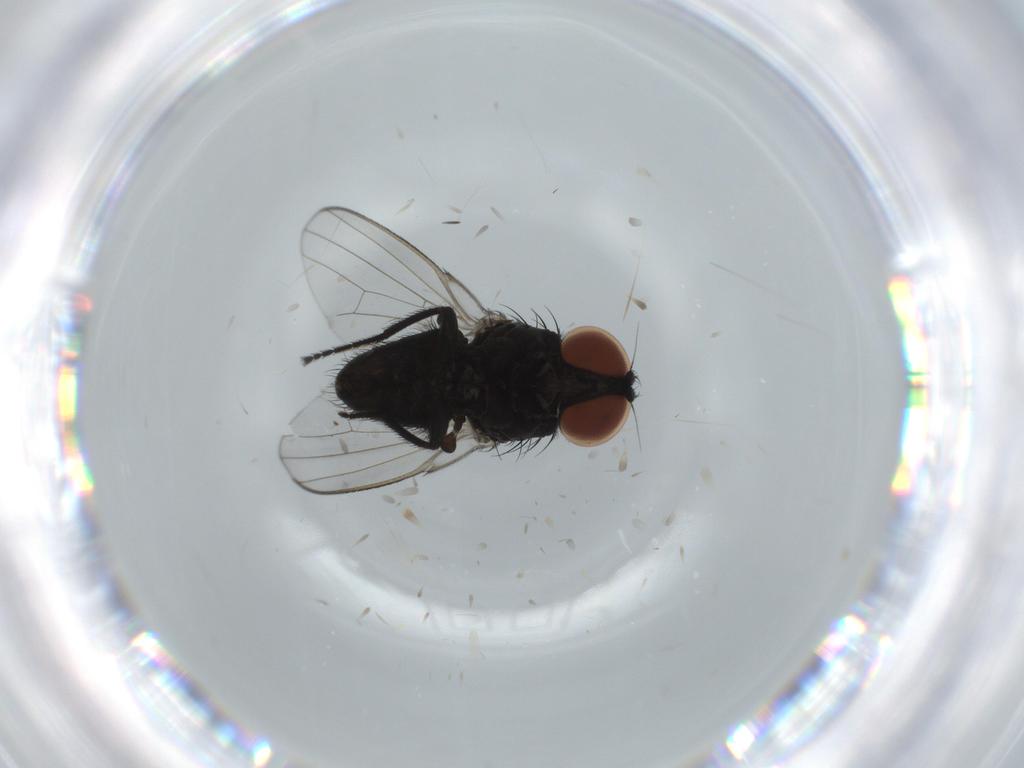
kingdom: Animalia
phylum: Arthropoda
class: Insecta
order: Diptera
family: Milichiidae
